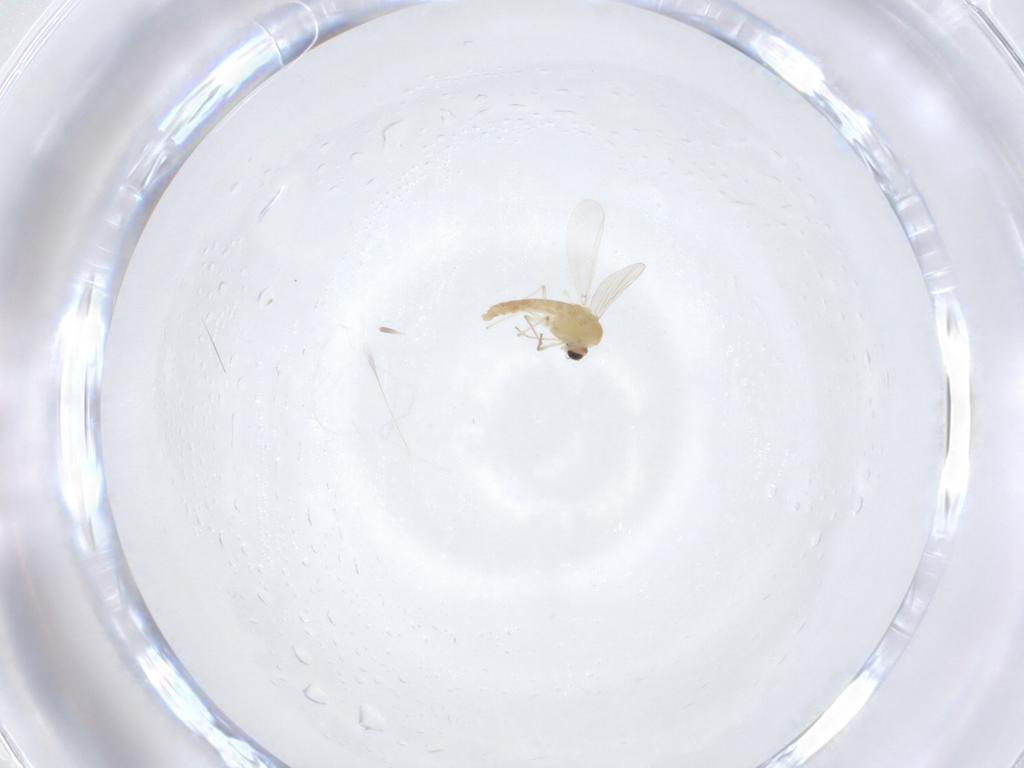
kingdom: Animalia
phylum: Arthropoda
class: Insecta
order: Diptera
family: Chironomidae
